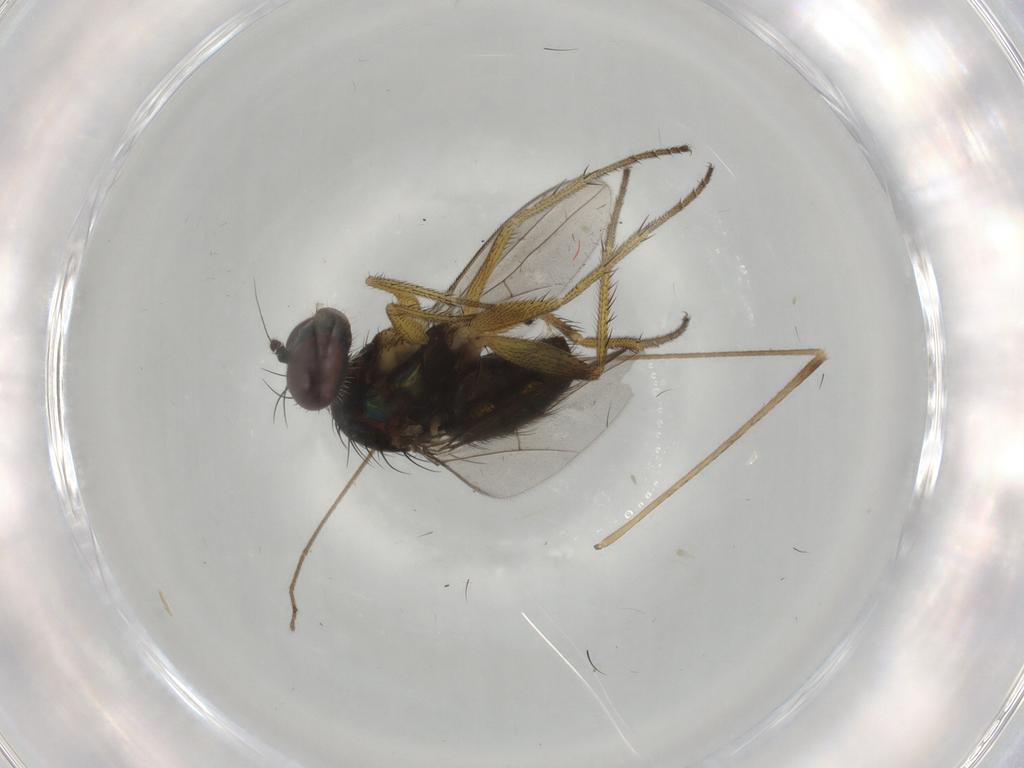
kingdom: Animalia
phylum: Arthropoda
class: Insecta
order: Diptera
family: Dolichopodidae
